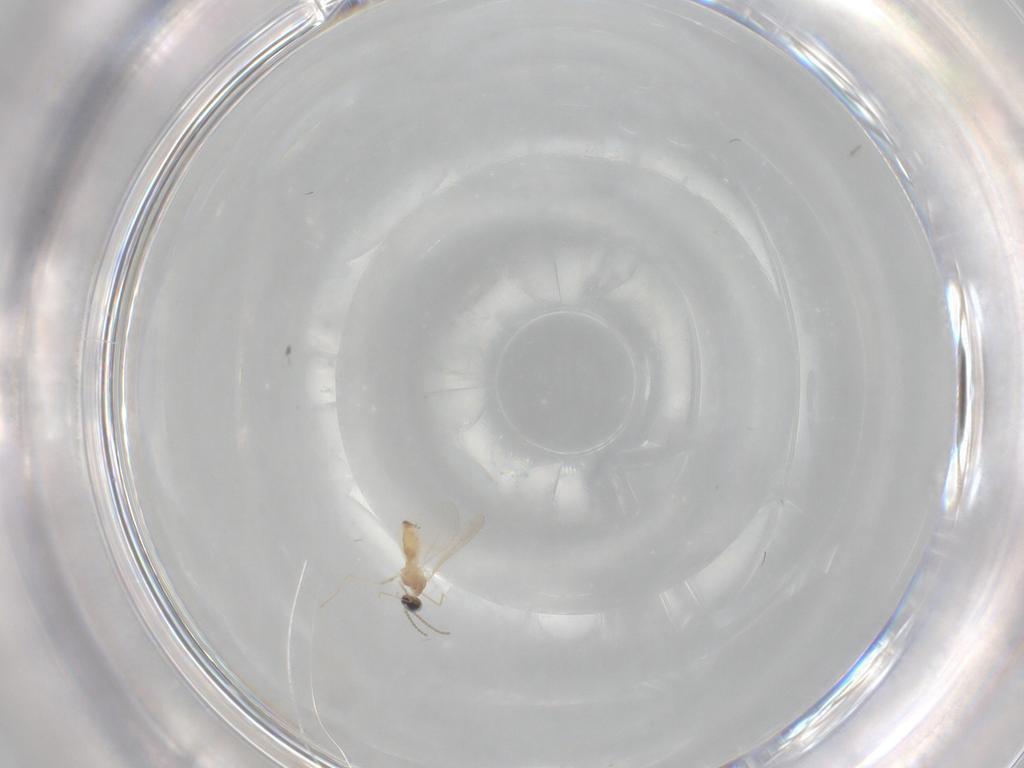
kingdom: Animalia
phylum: Arthropoda
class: Insecta
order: Diptera
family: Cecidomyiidae
